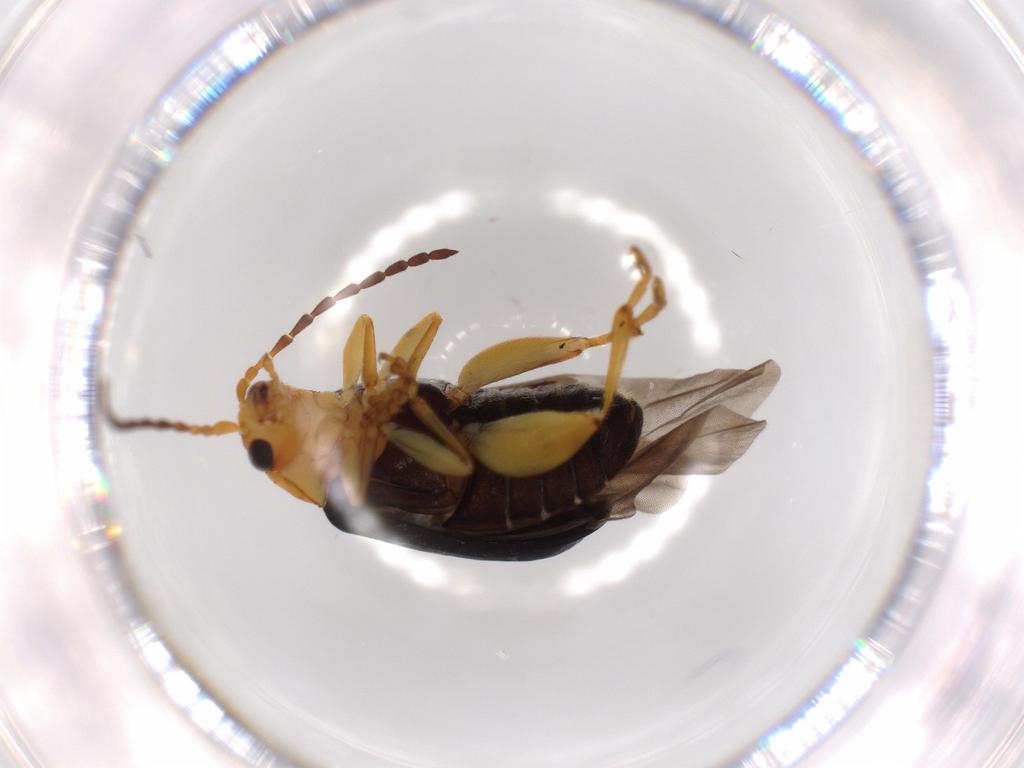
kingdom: Animalia
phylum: Arthropoda
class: Insecta
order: Coleoptera
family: Chrysomelidae
